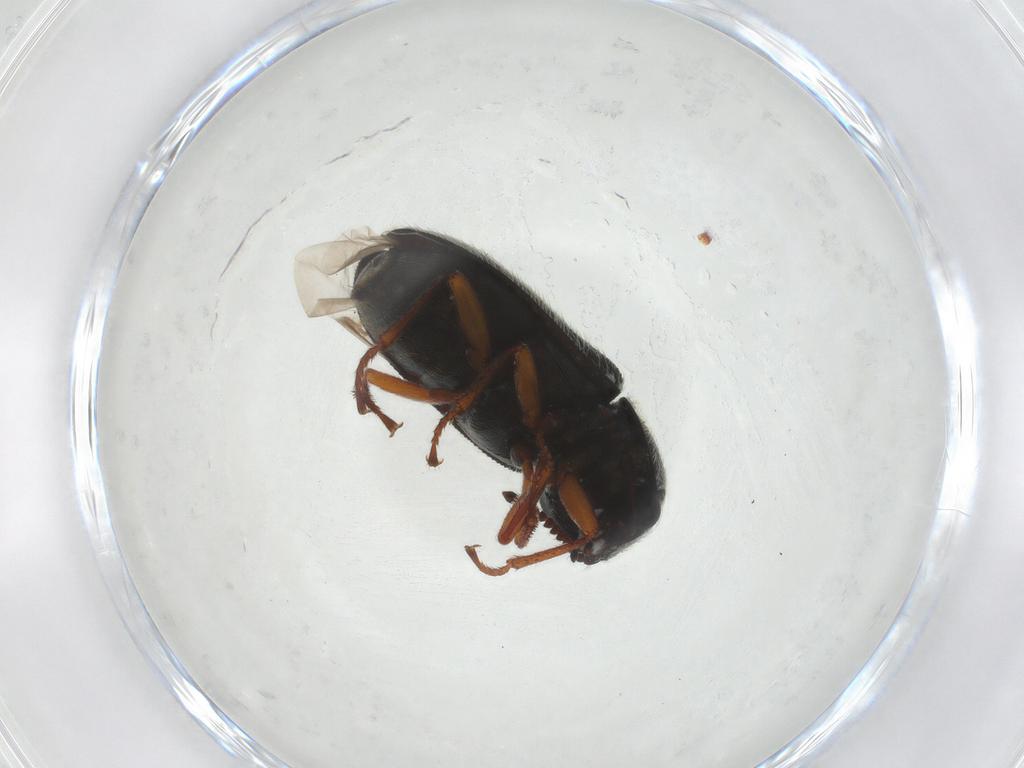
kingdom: Animalia
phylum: Arthropoda
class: Insecta
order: Coleoptera
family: Melyridae
